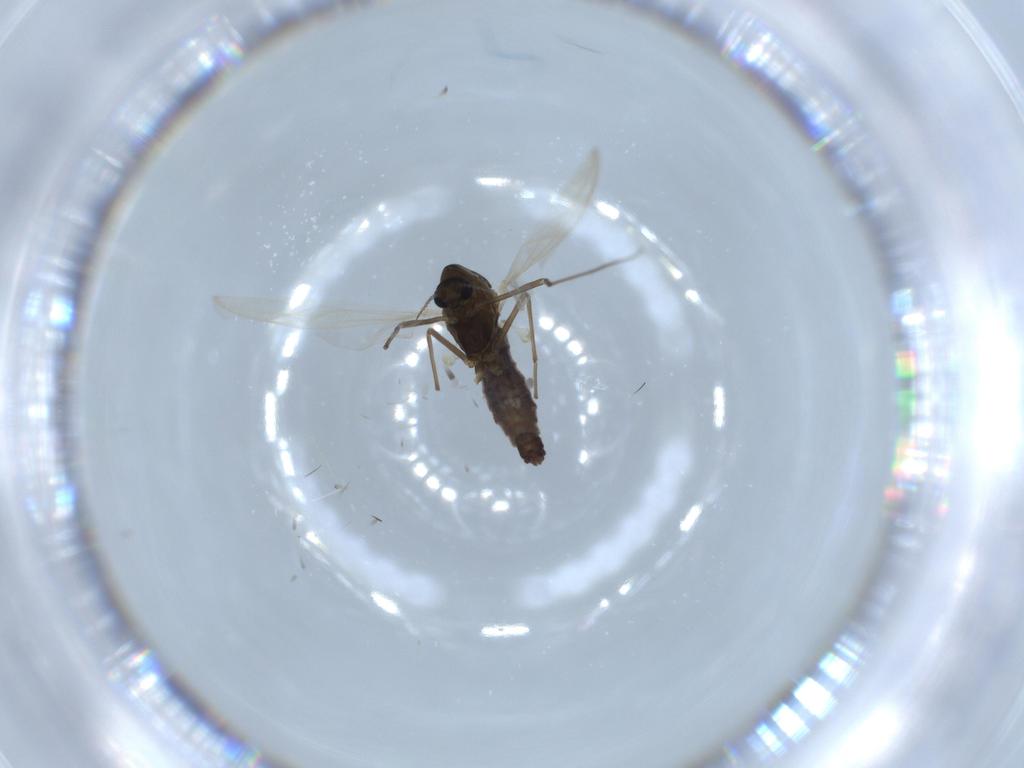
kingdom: Animalia
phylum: Arthropoda
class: Insecta
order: Diptera
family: Chironomidae
